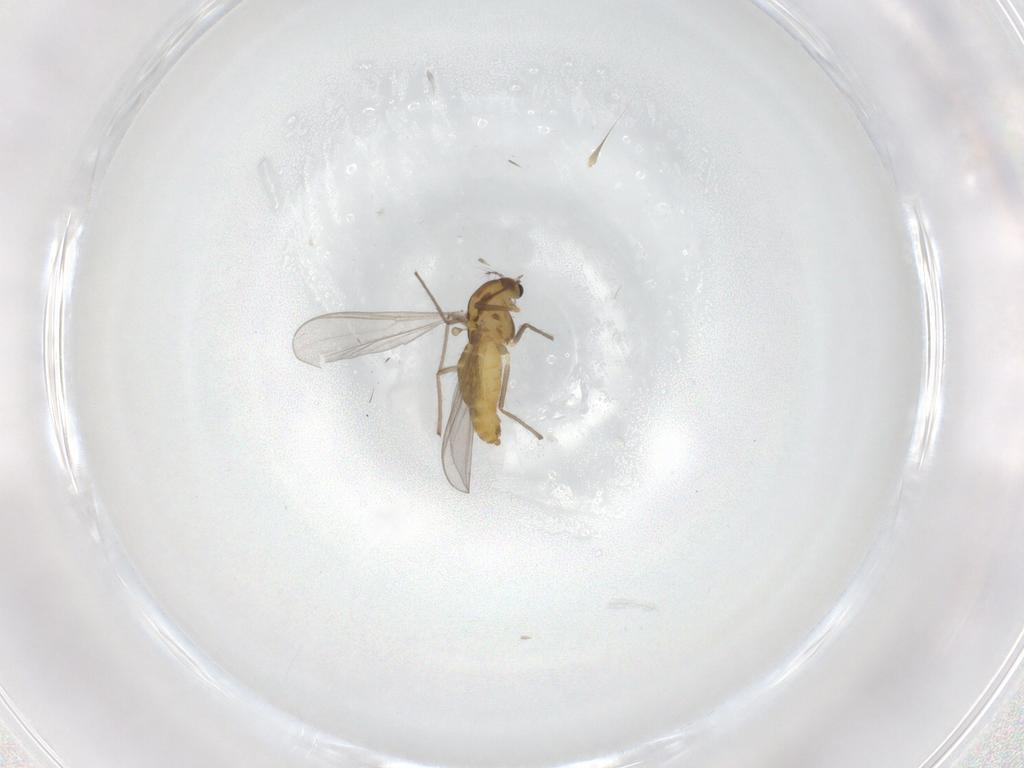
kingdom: Animalia
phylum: Arthropoda
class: Insecta
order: Diptera
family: Chironomidae
